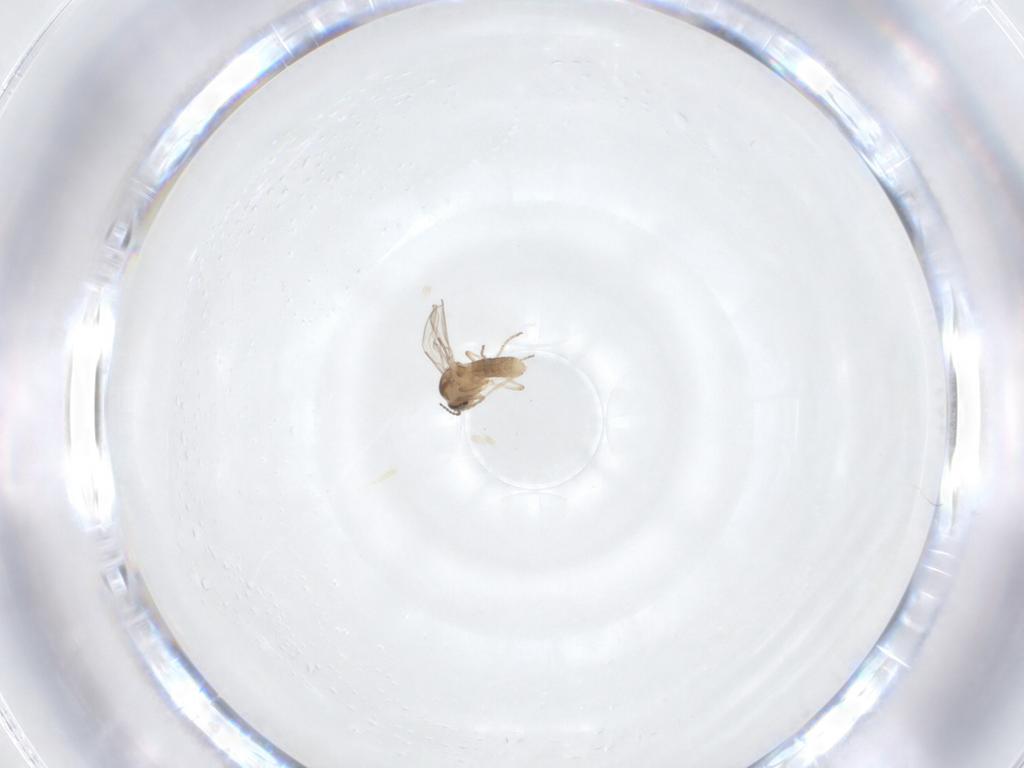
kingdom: Animalia
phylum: Arthropoda
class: Insecta
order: Diptera
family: Ceratopogonidae
